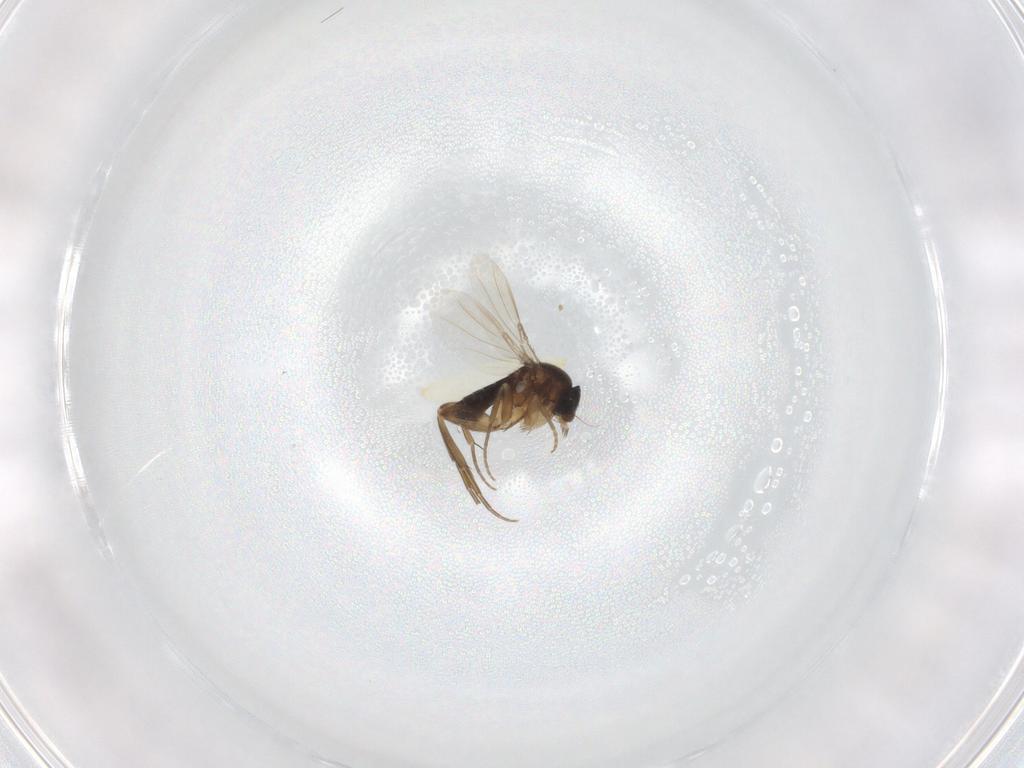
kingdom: Animalia
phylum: Arthropoda
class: Insecta
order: Diptera
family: Phoridae
